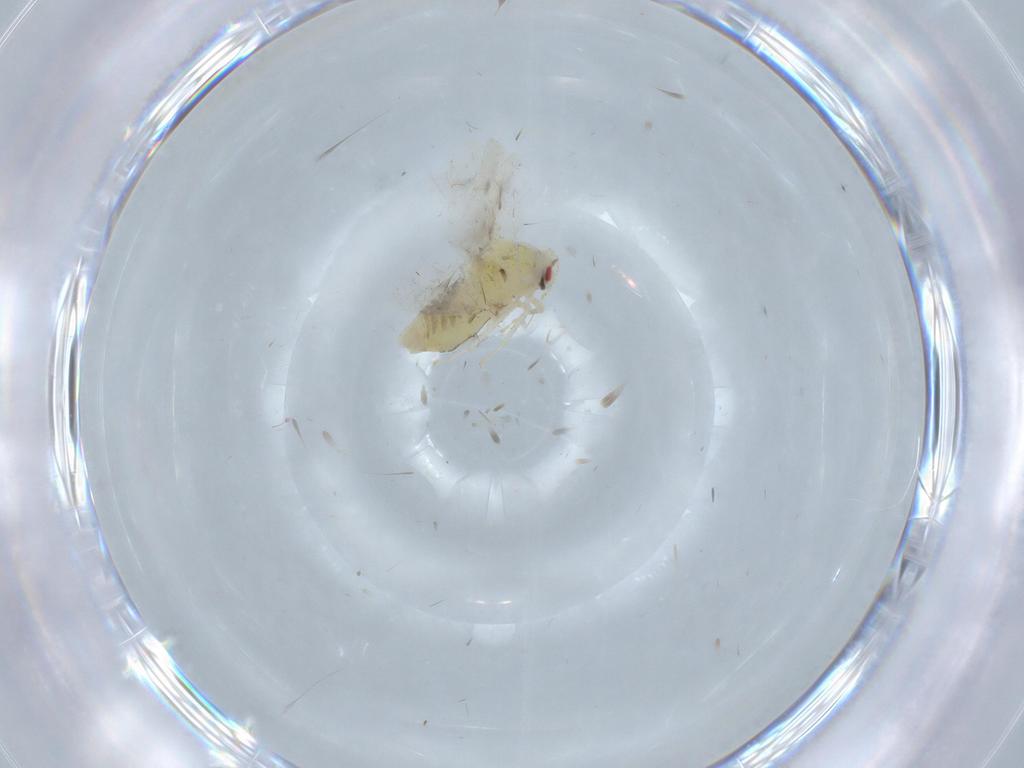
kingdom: Animalia
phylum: Arthropoda
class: Insecta
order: Hemiptera
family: Aleyrodidae
